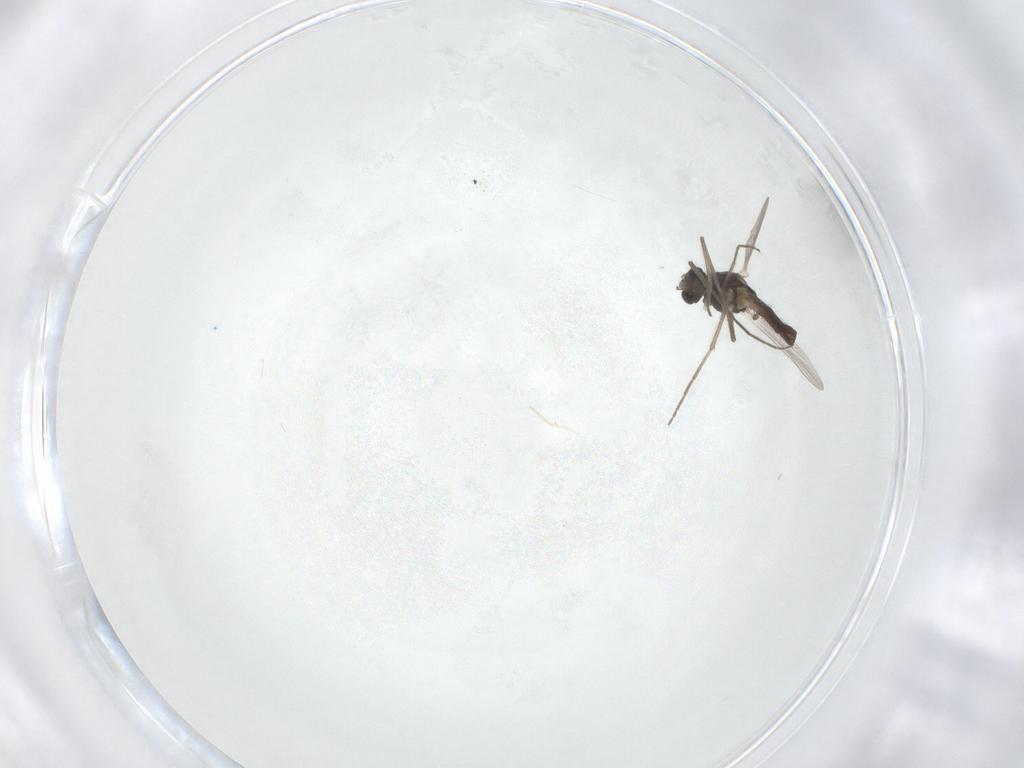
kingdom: Animalia
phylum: Arthropoda
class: Insecta
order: Diptera
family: Chironomidae
